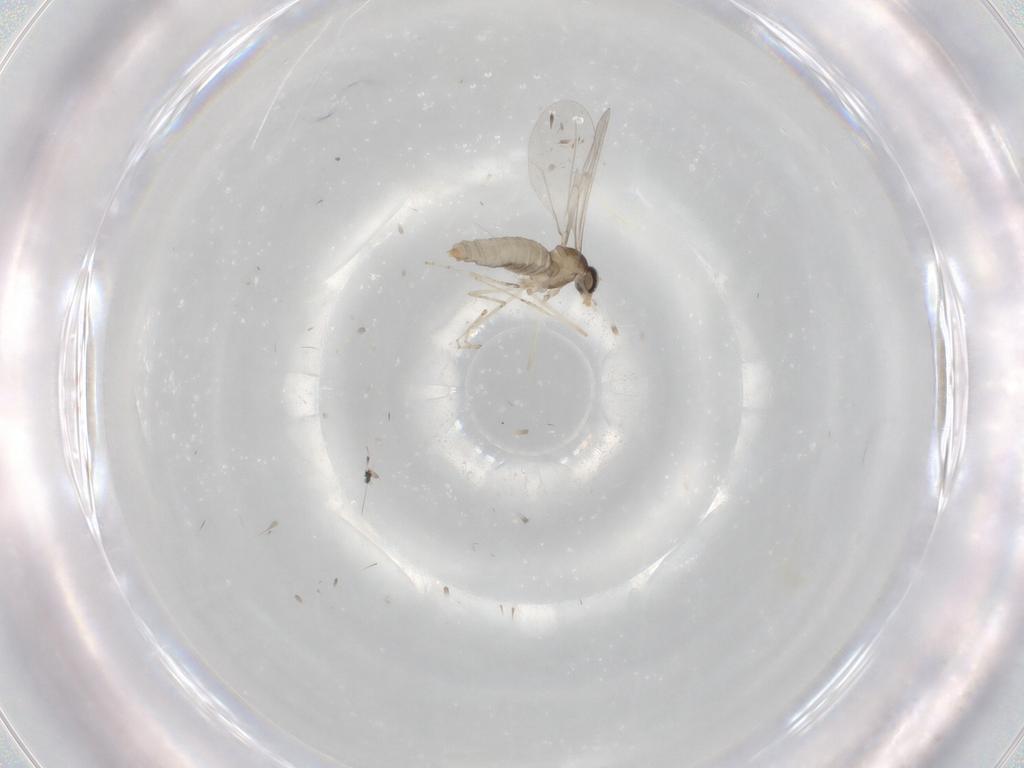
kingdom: Animalia
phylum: Arthropoda
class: Insecta
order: Diptera
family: Cecidomyiidae
